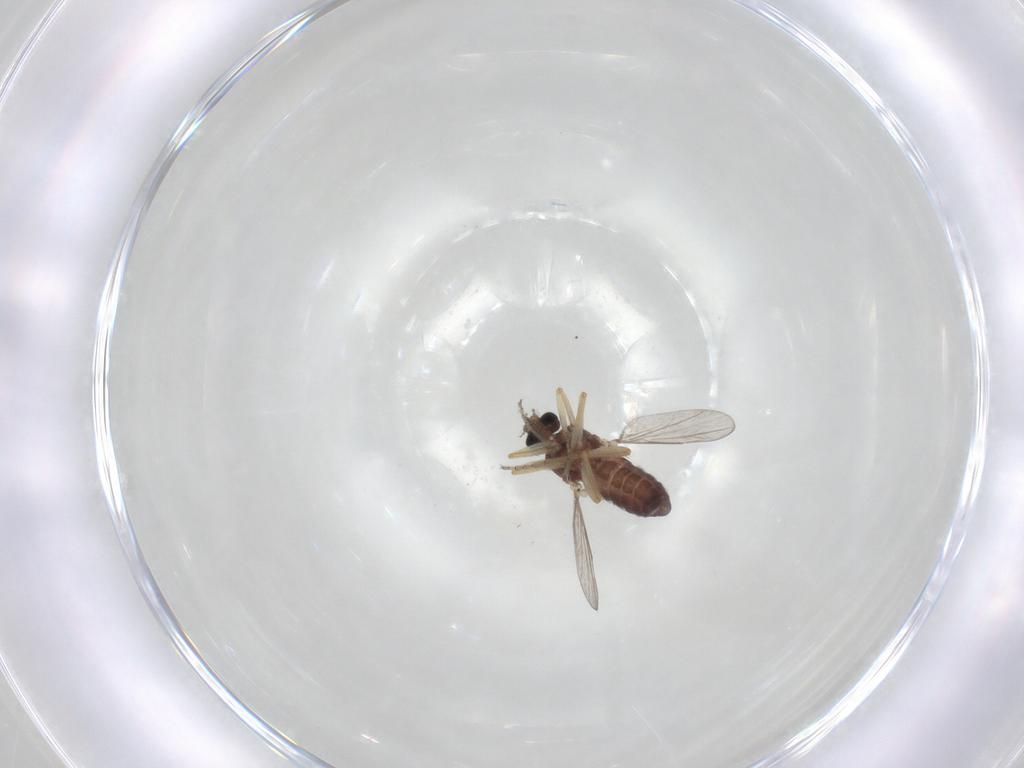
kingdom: Animalia
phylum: Arthropoda
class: Insecta
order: Diptera
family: Ceratopogonidae
